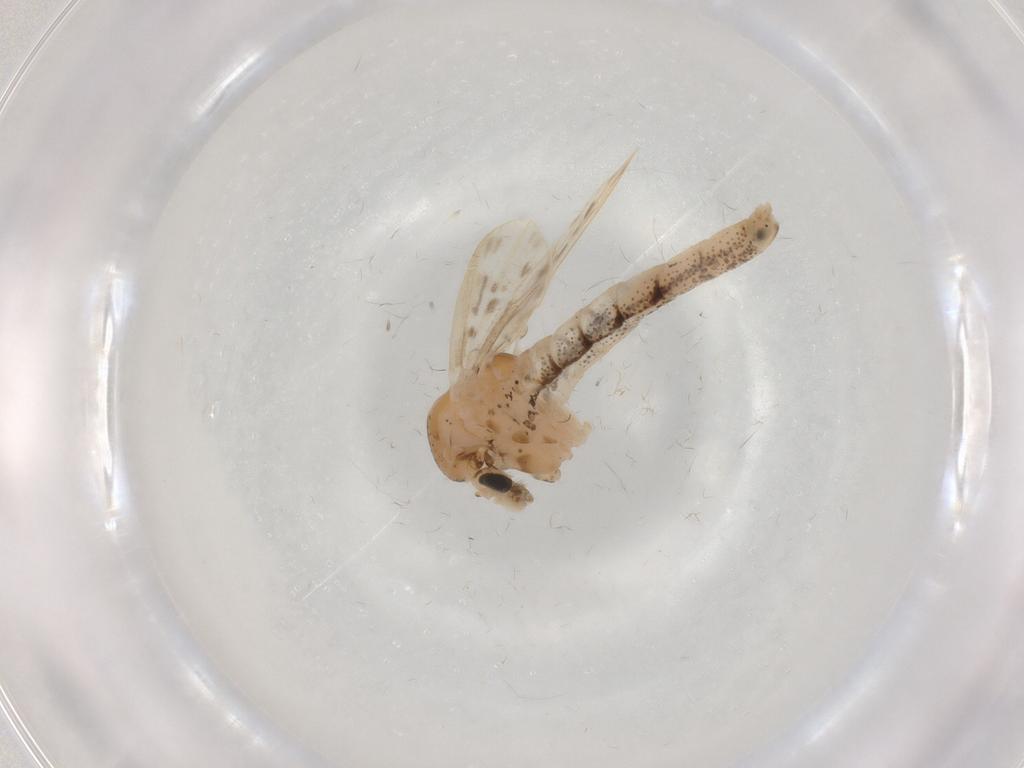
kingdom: Animalia
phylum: Arthropoda
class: Insecta
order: Diptera
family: Chaoboridae
